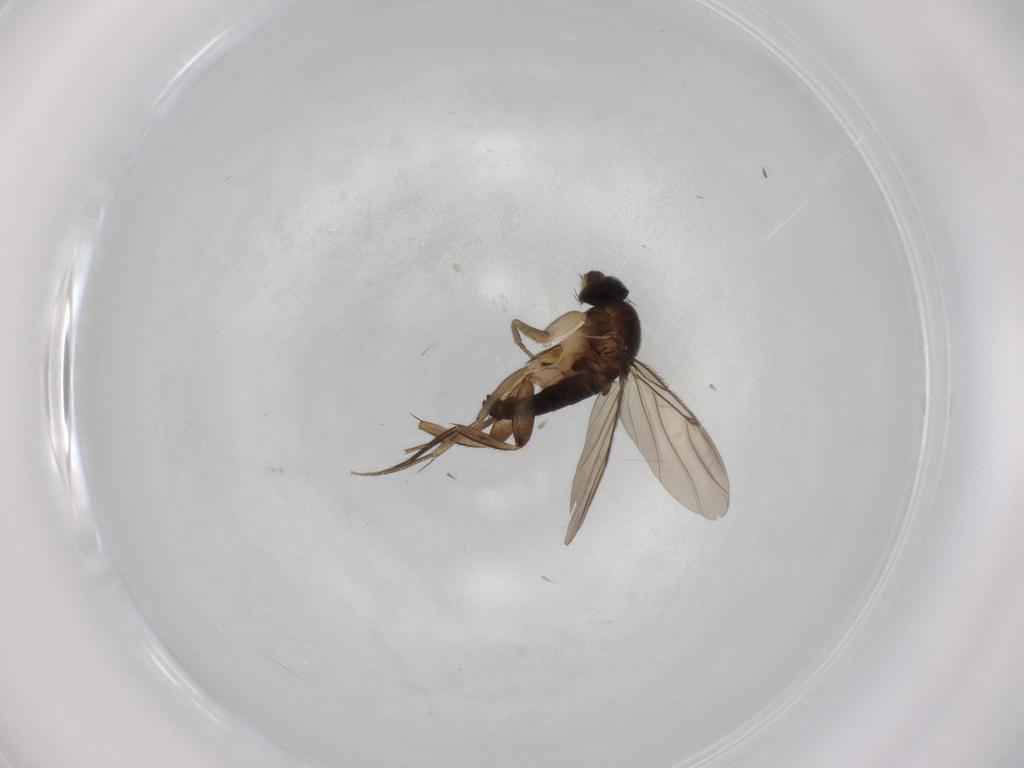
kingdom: Animalia
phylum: Arthropoda
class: Insecta
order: Diptera
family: Phoridae
